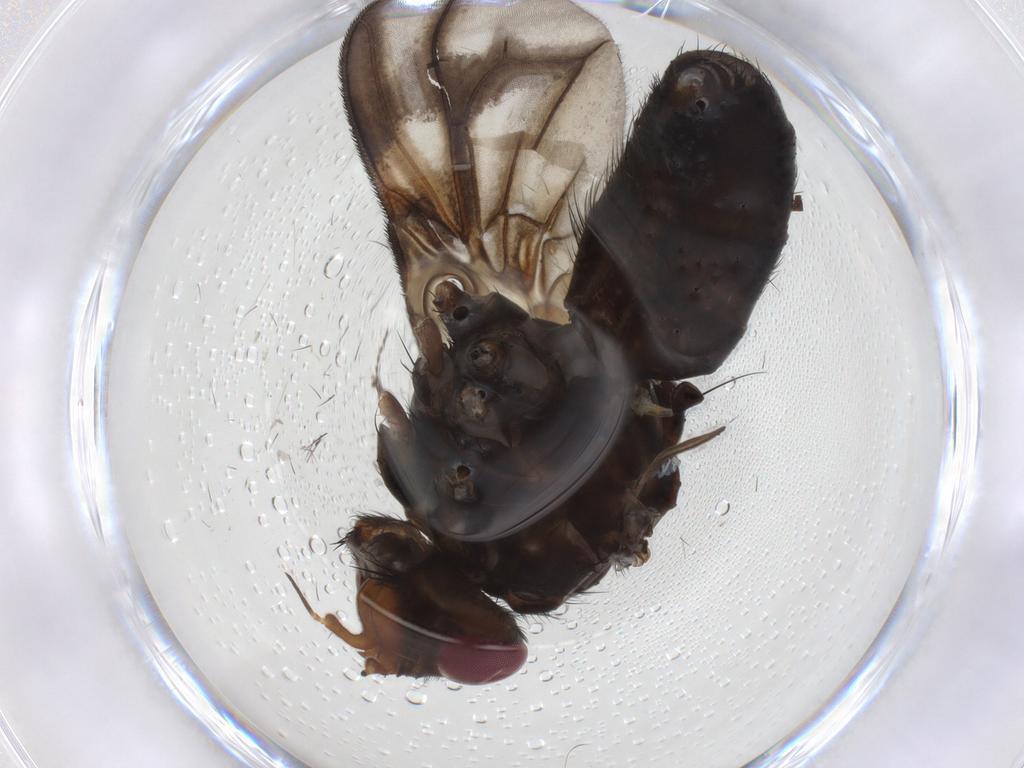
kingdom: Animalia
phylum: Arthropoda
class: Insecta
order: Diptera
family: Calliphoridae
